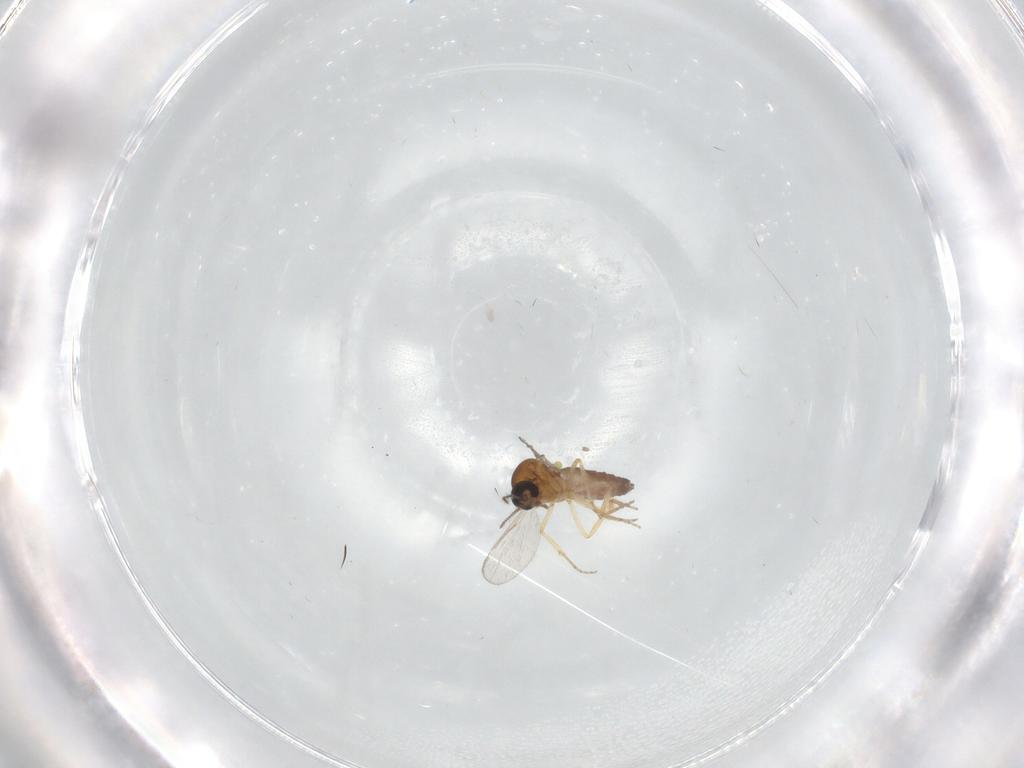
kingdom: Animalia
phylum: Arthropoda
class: Insecta
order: Diptera
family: Ceratopogonidae
